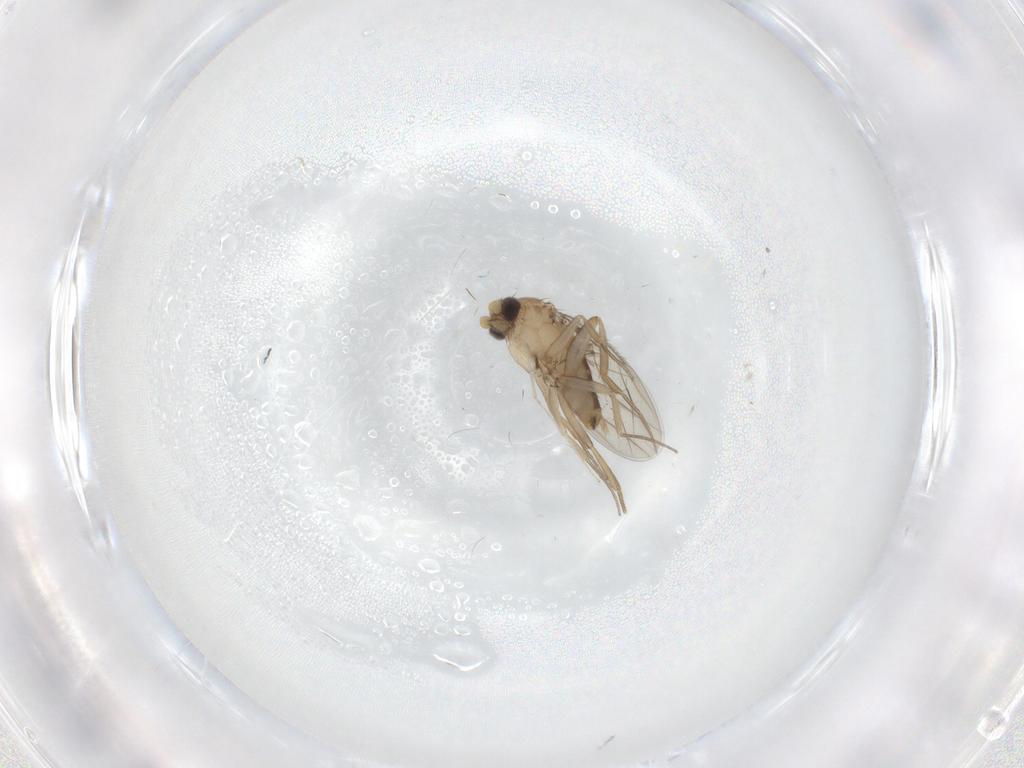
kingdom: Animalia
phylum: Arthropoda
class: Insecta
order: Diptera
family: Phoridae
